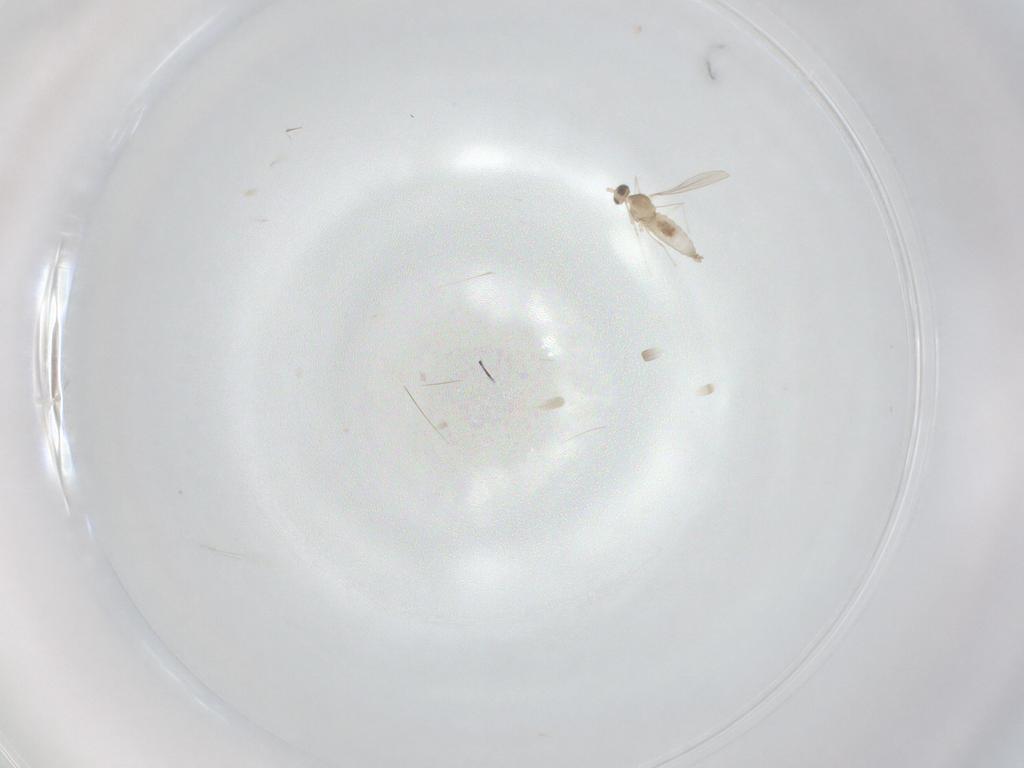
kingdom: Animalia
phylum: Arthropoda
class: Insecta
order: Diptera
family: Cecidomyiidae
